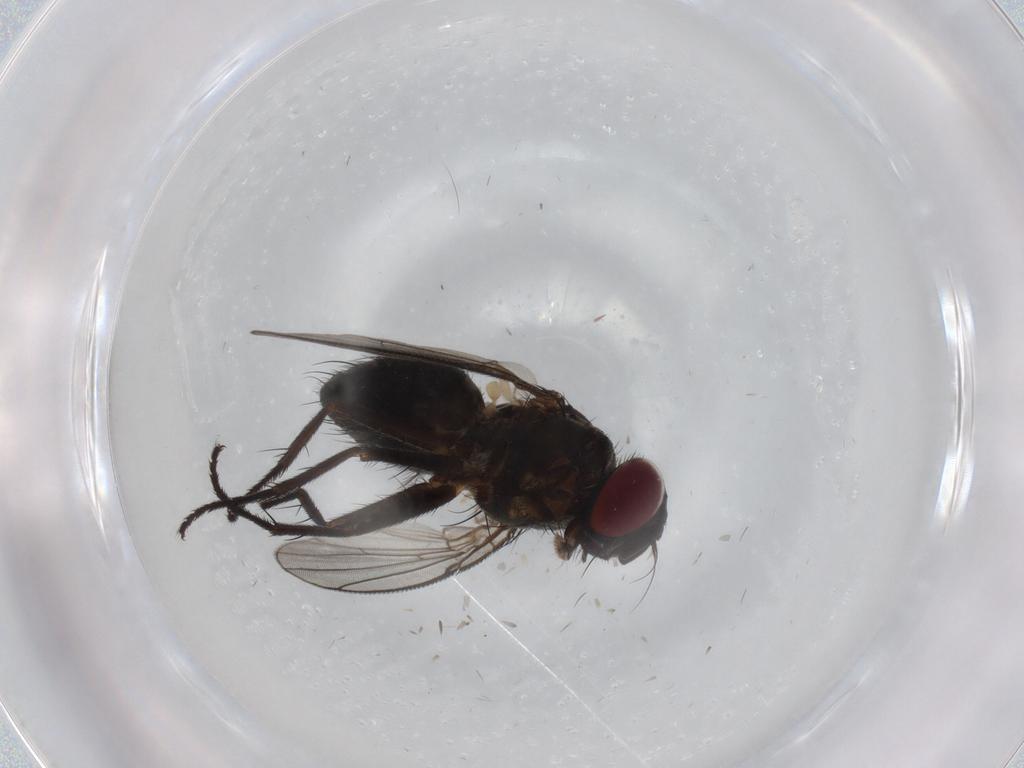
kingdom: Animalia
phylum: Arthropoda
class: Insecta
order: Diptera
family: Muscidae
